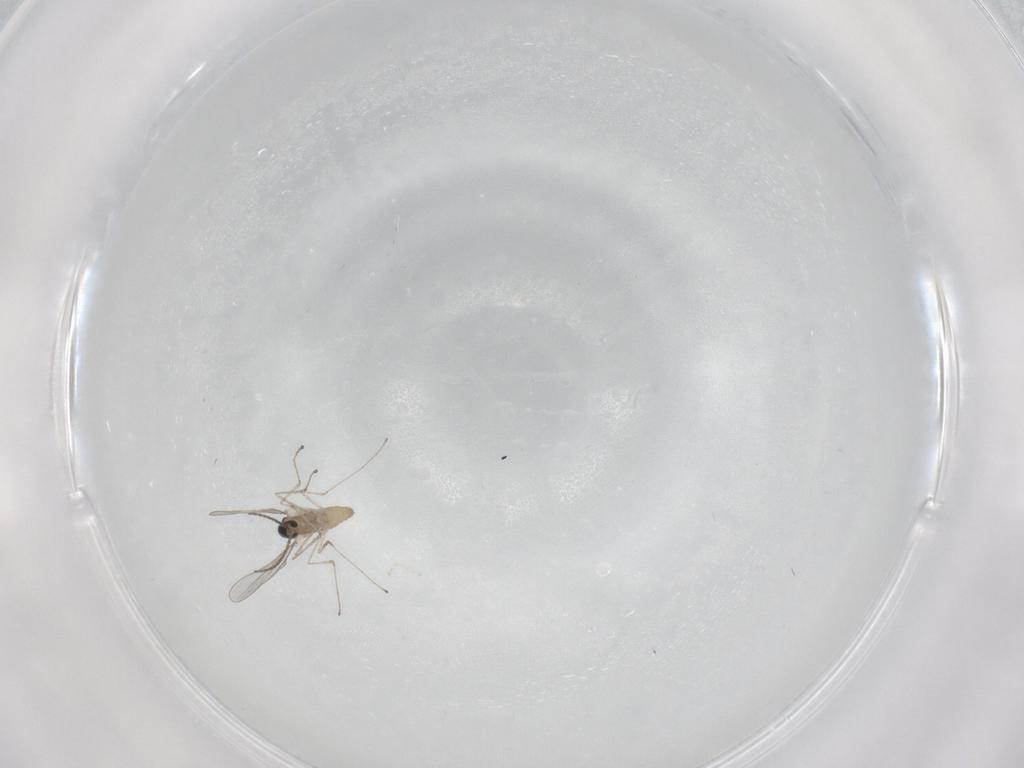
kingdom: Animalia
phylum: Arthropoda
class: Insecta
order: Diptera
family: Cecidomyiidae
